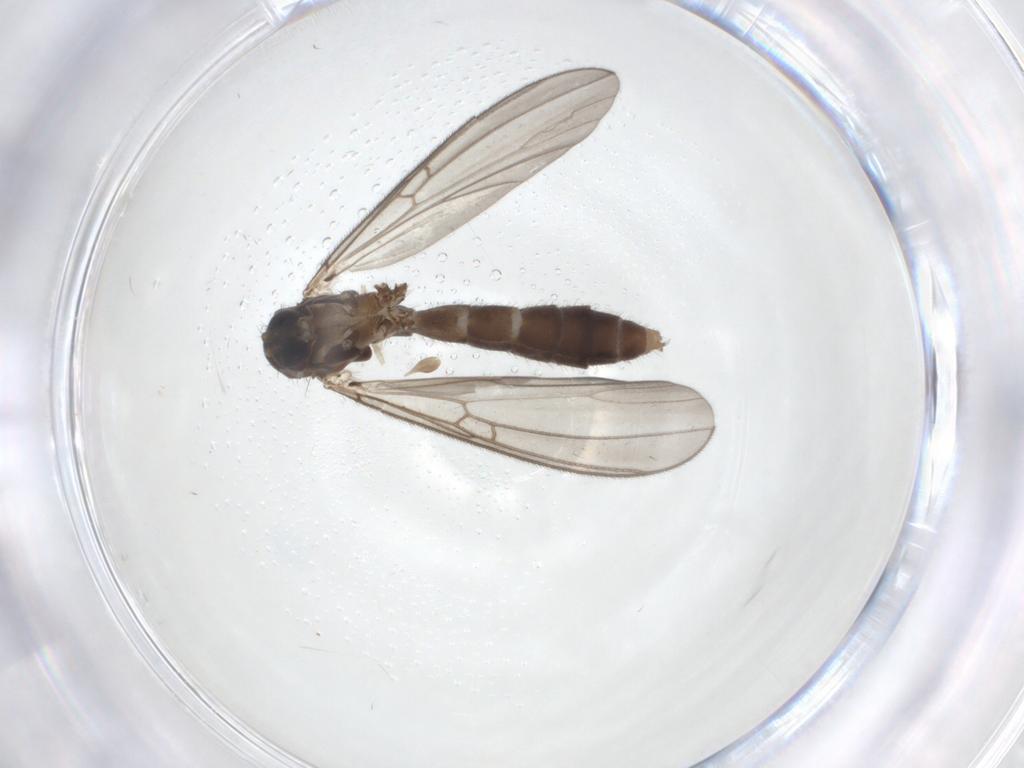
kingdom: Animalia
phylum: Arthropoda
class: Insecta
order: Diptera
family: Mycetophilidae
